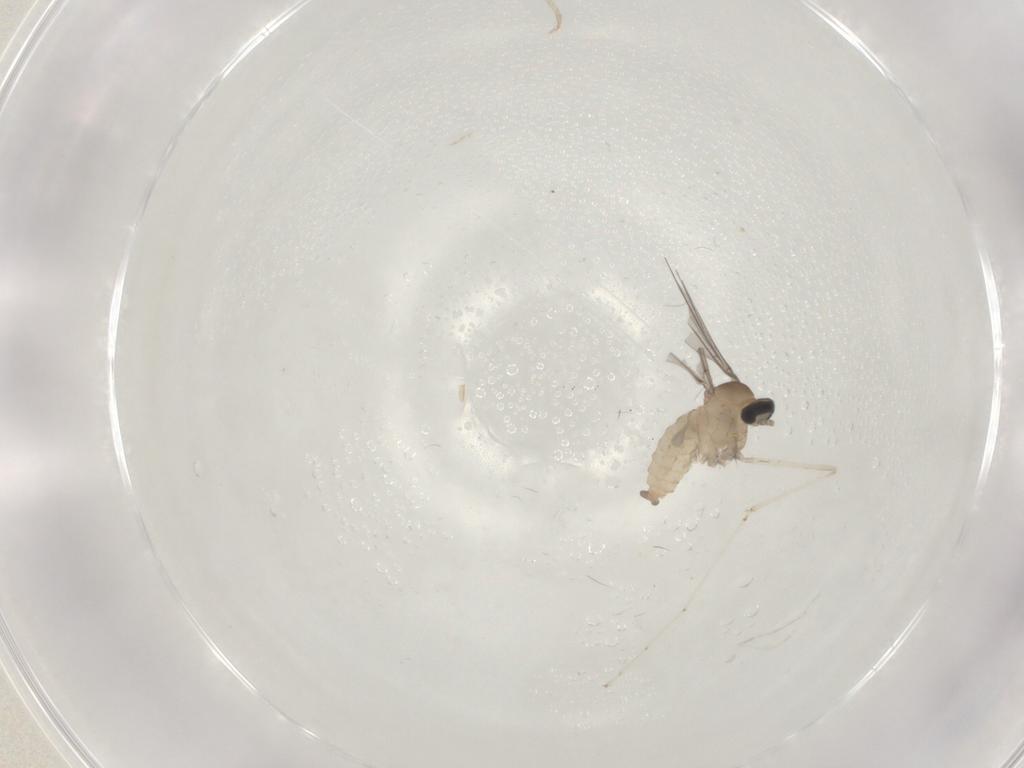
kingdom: Animalia
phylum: Arthropoda
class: Insecta
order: Diptera
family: Cecidomyiidae
